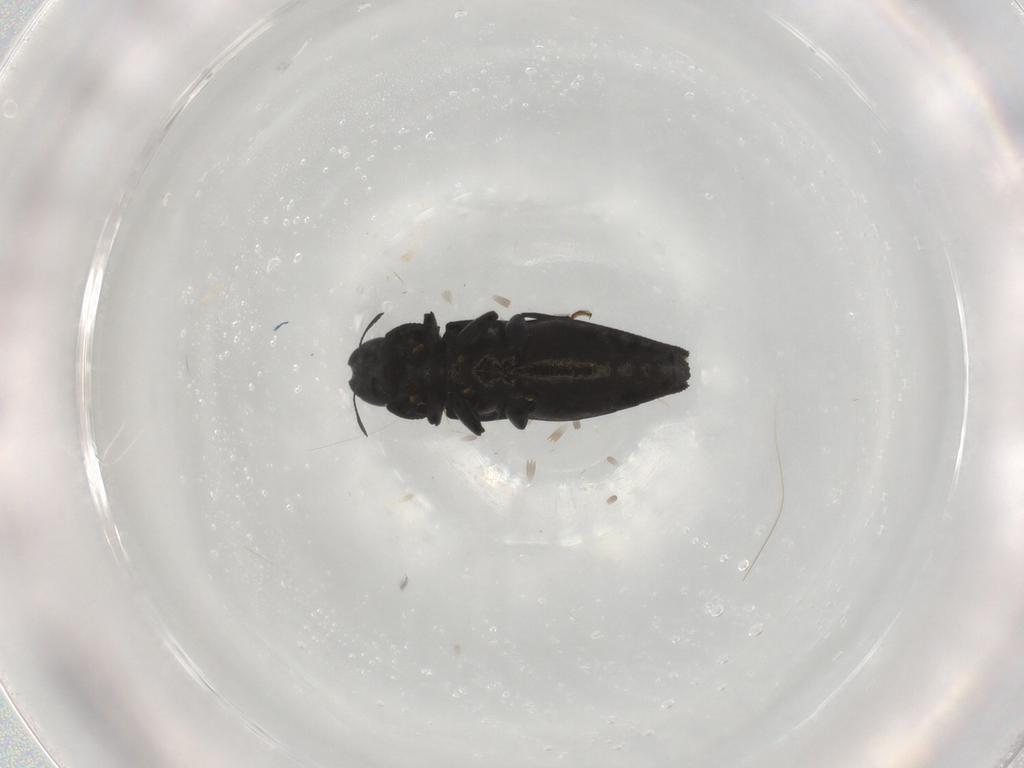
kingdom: Animalia
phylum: Arthropoda
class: Insecta
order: Coleoptera
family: Buprestidae
